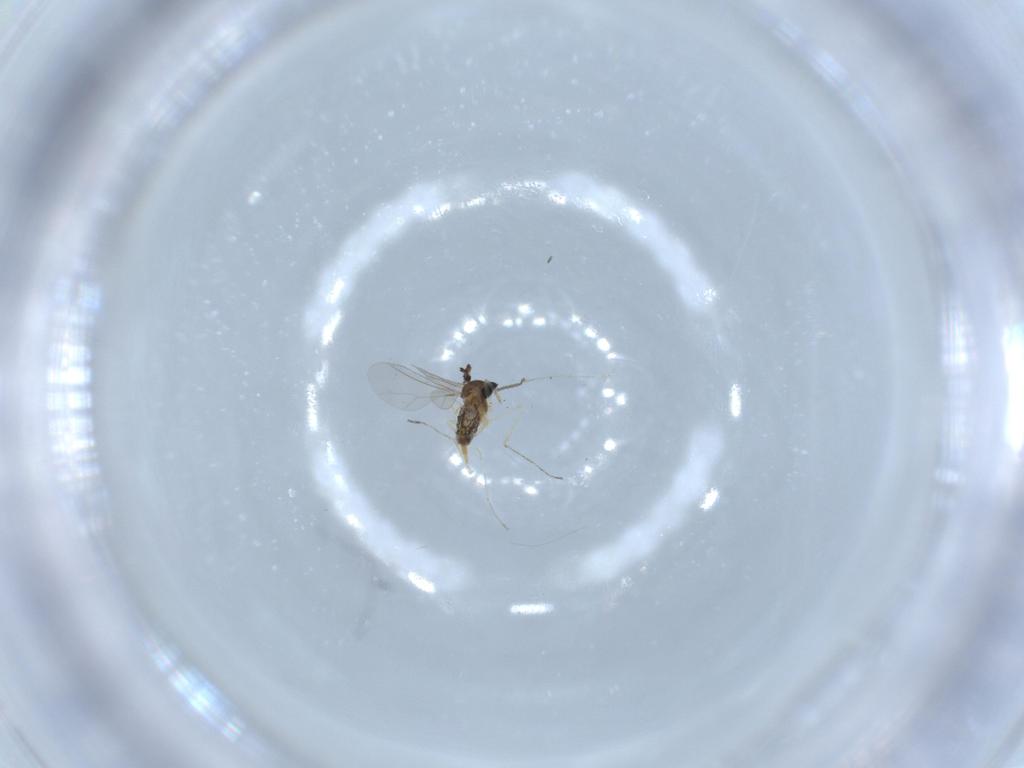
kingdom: Animalia
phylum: Arthropoda
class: Insecta
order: Diptera
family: Cecidomyiidae
